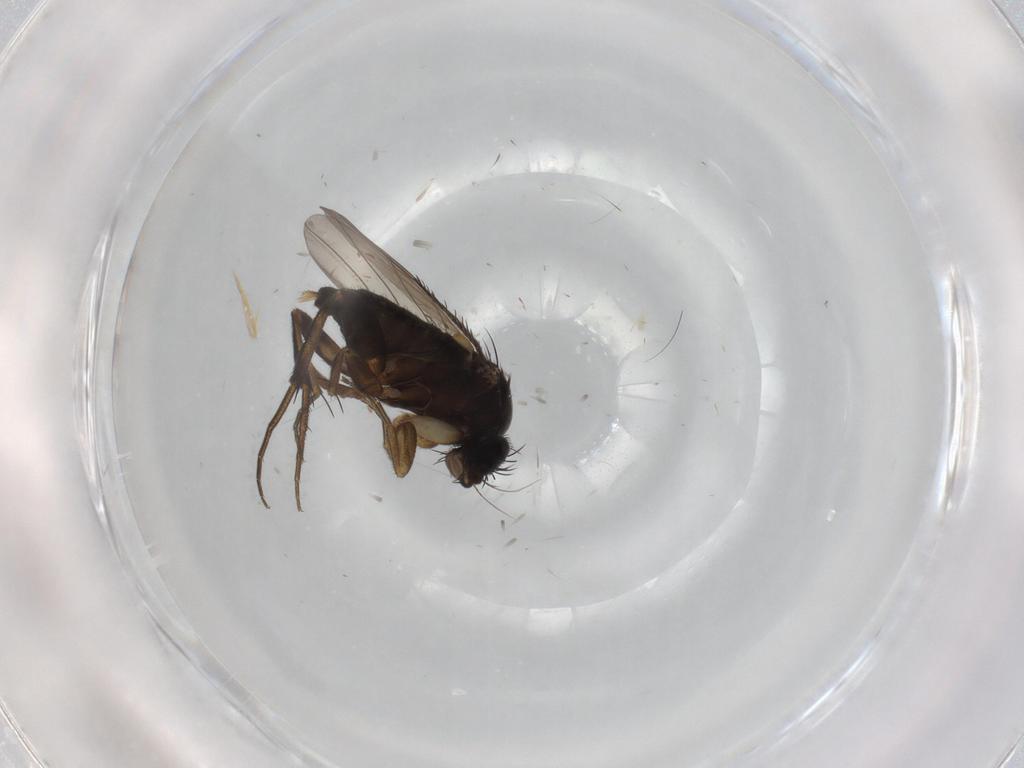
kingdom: Animalia
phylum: Arthropoda
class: Insecta
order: Diptera
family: Phoridae
